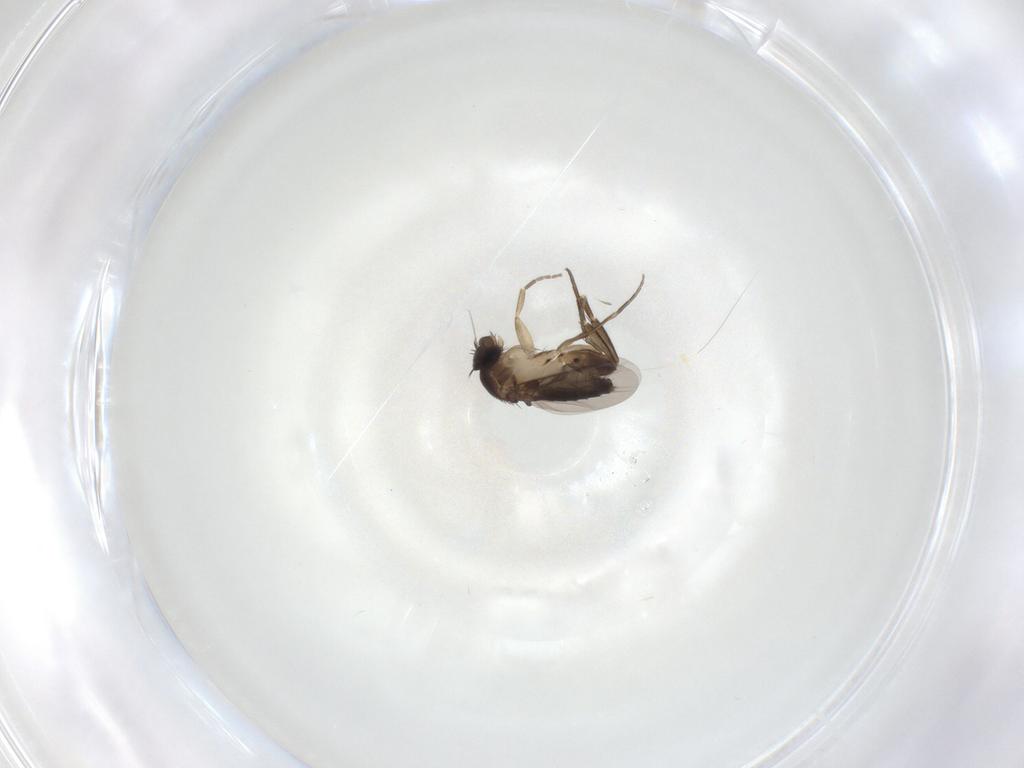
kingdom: Animalia
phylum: Arthropoda
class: Insecta
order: Diptera
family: Phoridae
